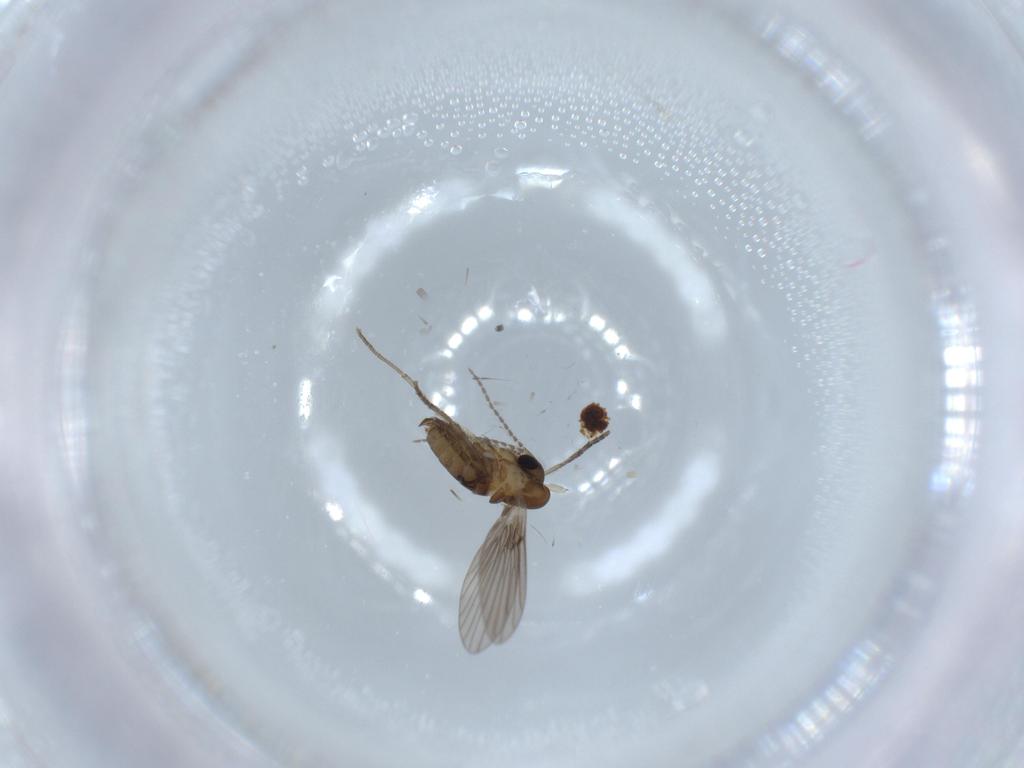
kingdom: Animalia
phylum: Arthropoda
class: Insecta
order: Diptera
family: Psychodidae
